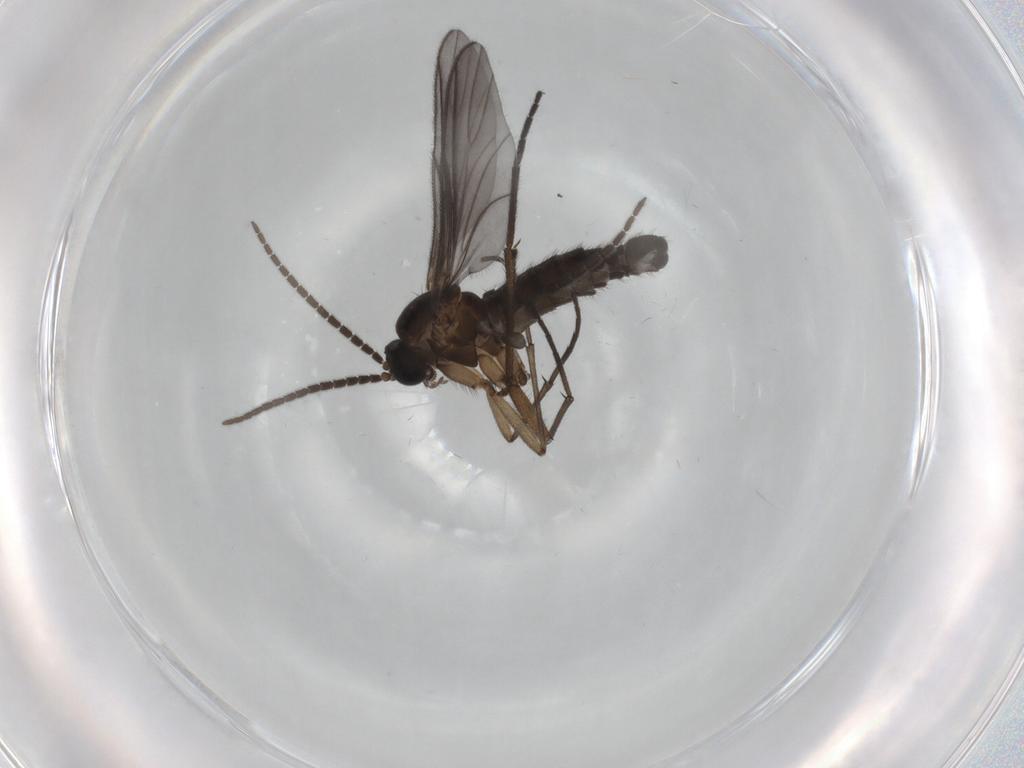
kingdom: Animalia
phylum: Arthropoda
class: Insecta
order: Diptera
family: Sciaridae
